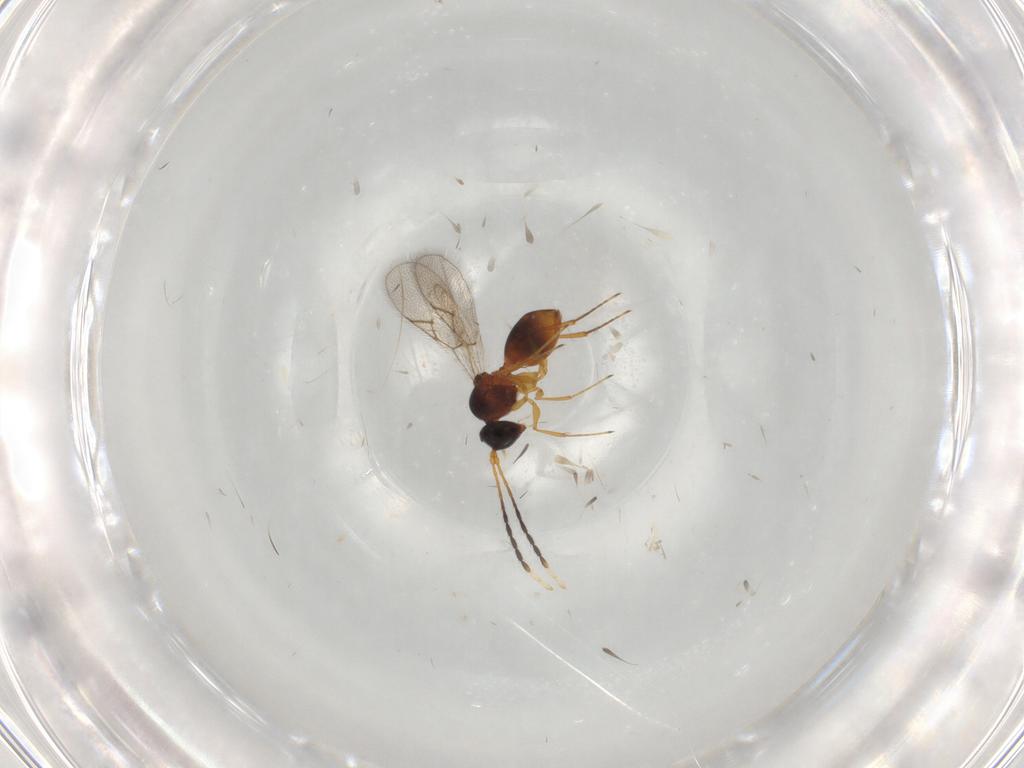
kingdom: Animalia
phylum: Arthropoda
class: Insecta
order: Hymenoptera
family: Figitidae
